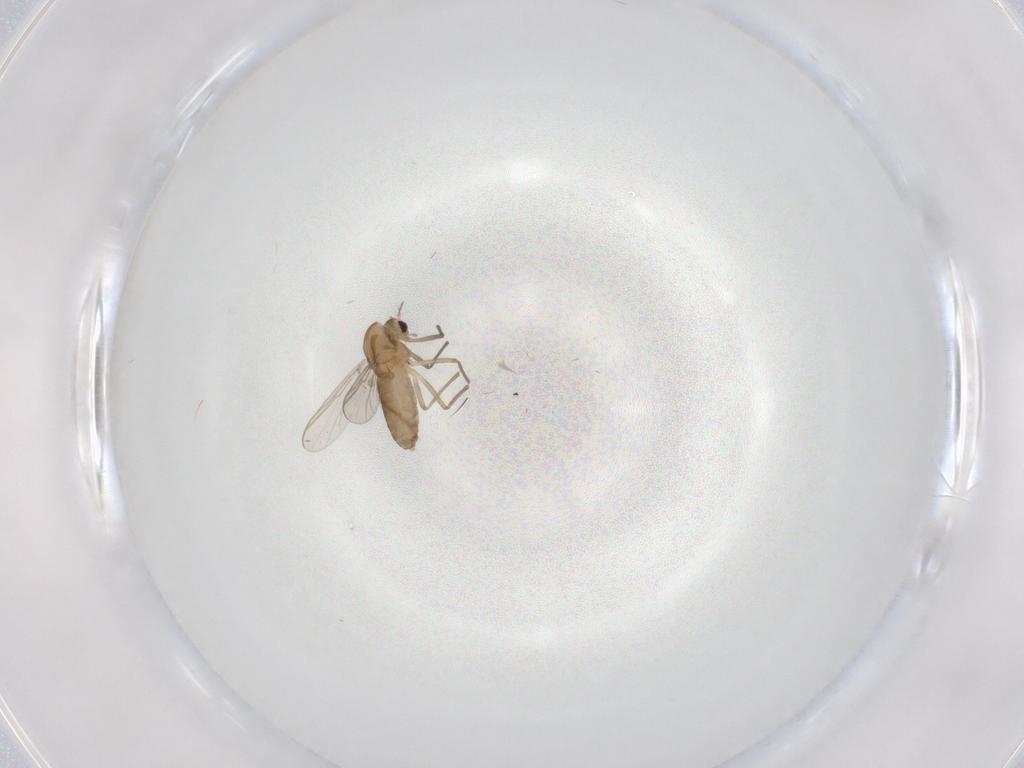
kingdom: Animalia
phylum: Arthropoda
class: Insecta
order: Diptera
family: Chironomidae
